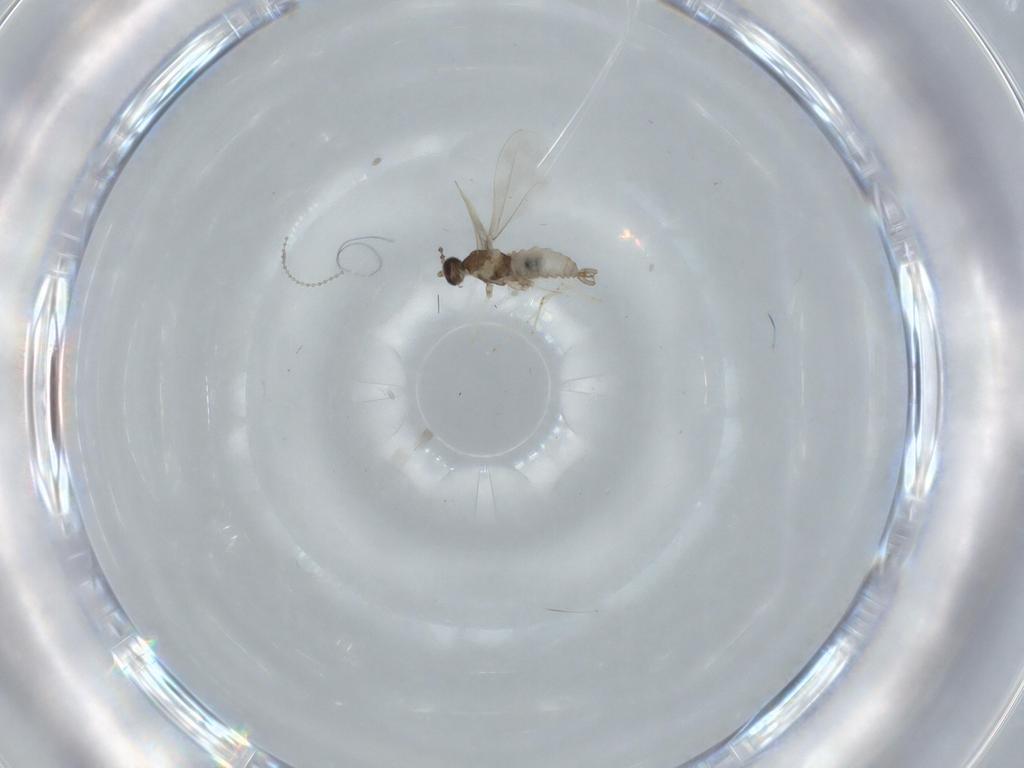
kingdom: Animalia
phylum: Arthropoda
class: Insecta
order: Diptera
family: Cecidomyiidae
